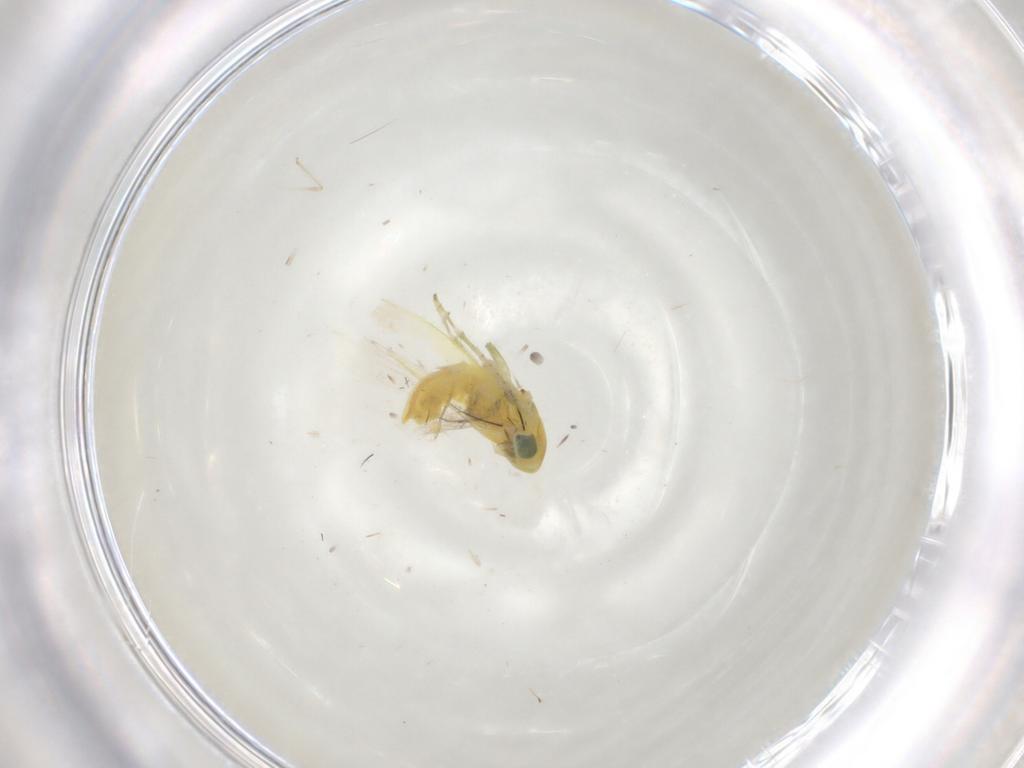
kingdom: Animalia
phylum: Arthropoda
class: Insecta
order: Hemiptera
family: Cicadellidae
